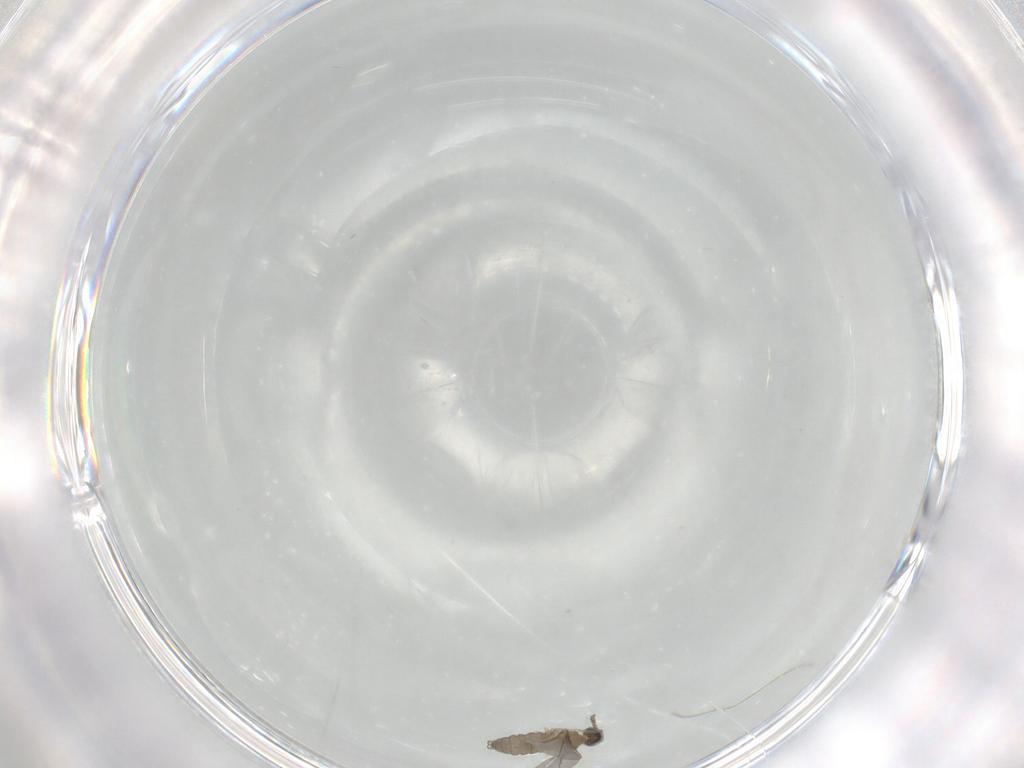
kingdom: Animalia
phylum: Arthropoda
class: Insecta
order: Diptera
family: Cecidomyiidae
